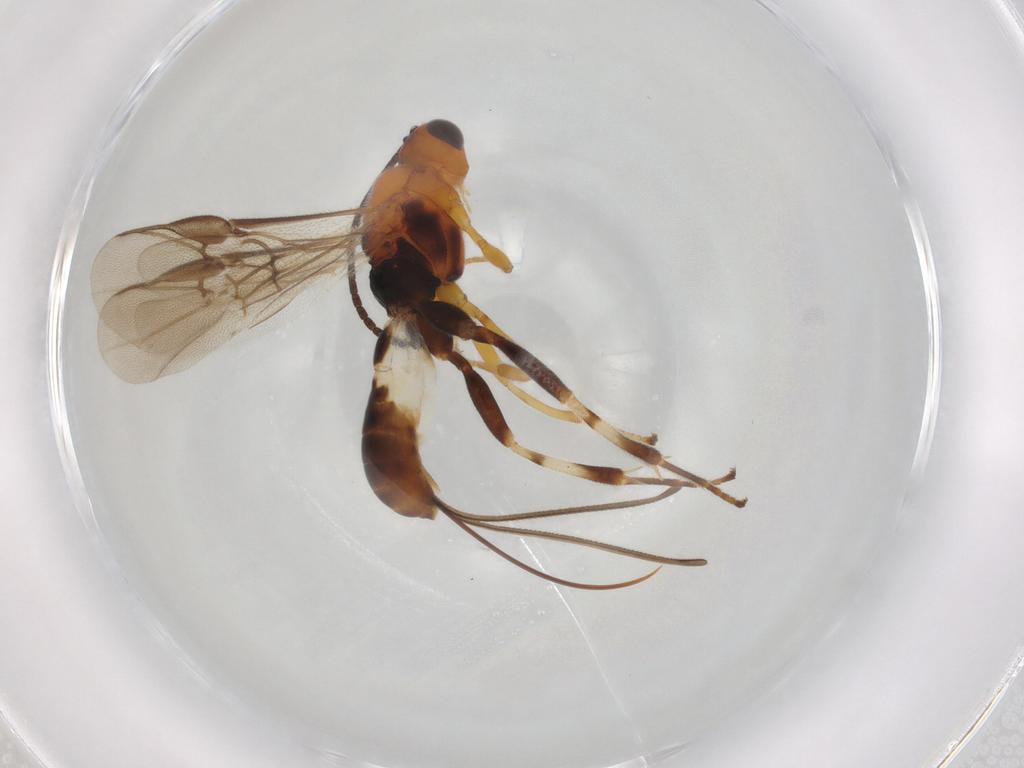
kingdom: Animalia
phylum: Arthropoda
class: Insecta
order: Hymenoptera
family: Braconidae
